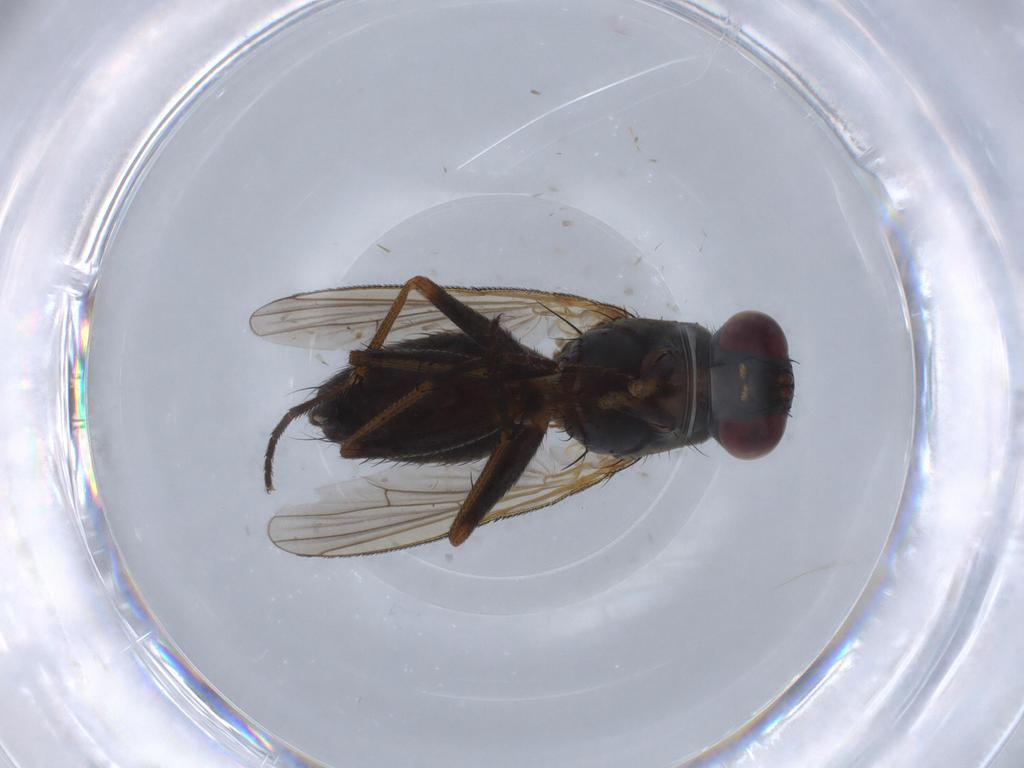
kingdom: Animalia
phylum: Arthropoda
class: Insecta
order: Diptera
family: Muscidae
